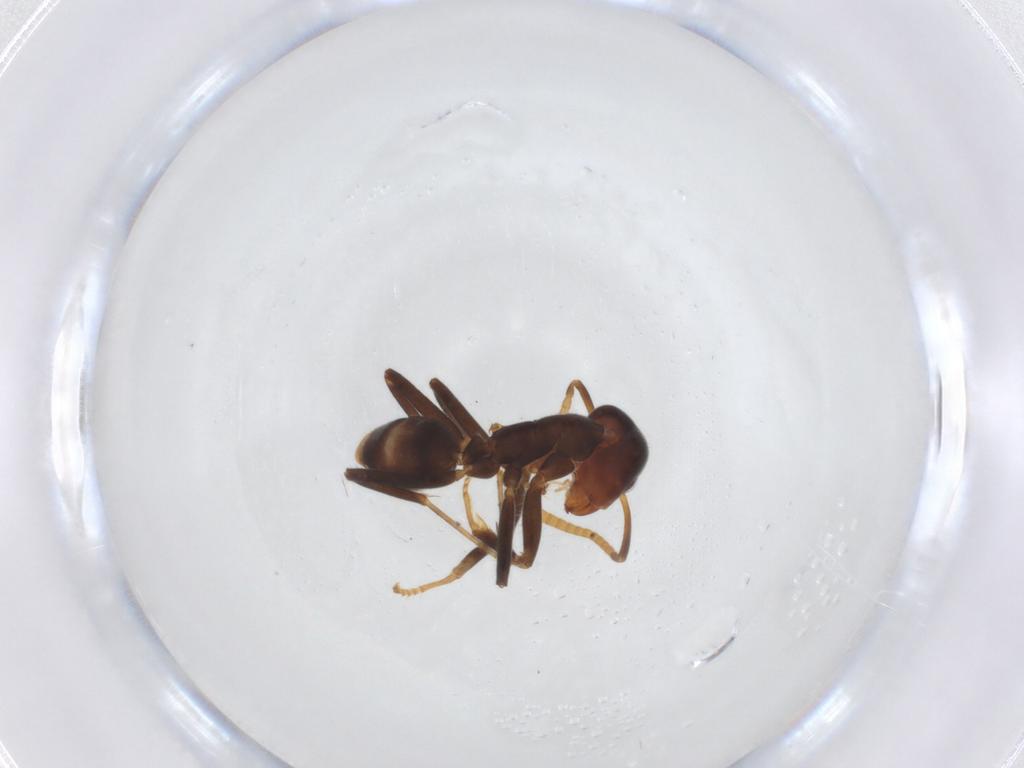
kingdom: Animalia
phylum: Arthropoda
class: Insecta
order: Hymenoptera
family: Formicidae
